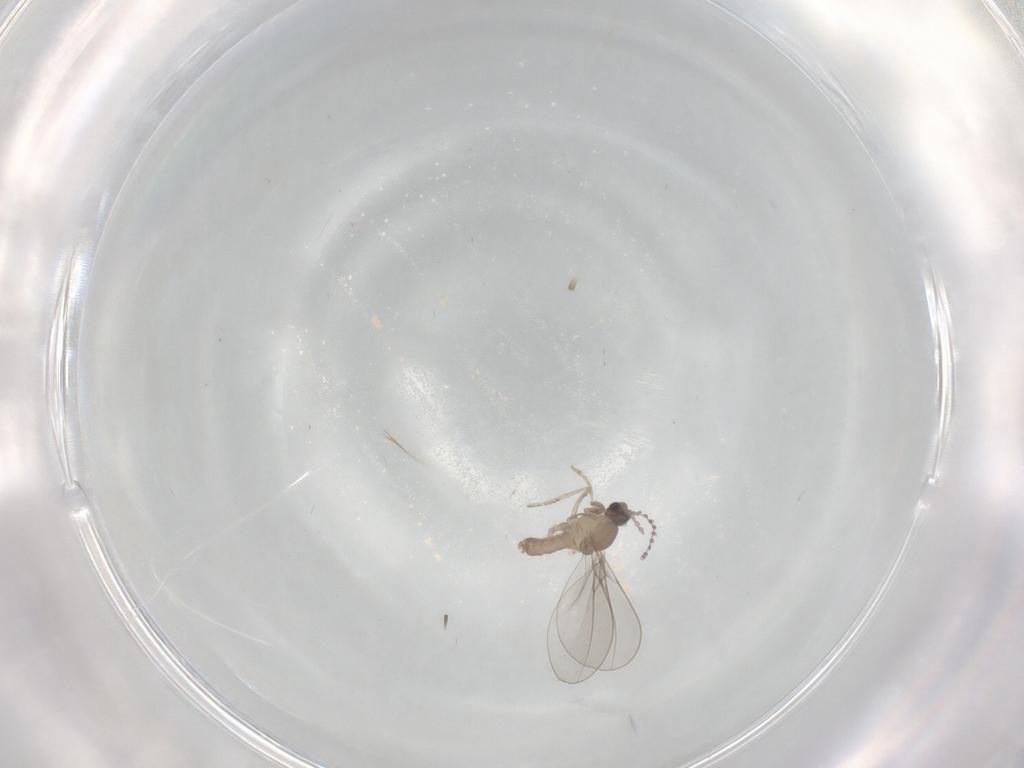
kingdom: Animalia
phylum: Arthropoda
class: Insecta
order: Diptera
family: Cecidomyiidae
